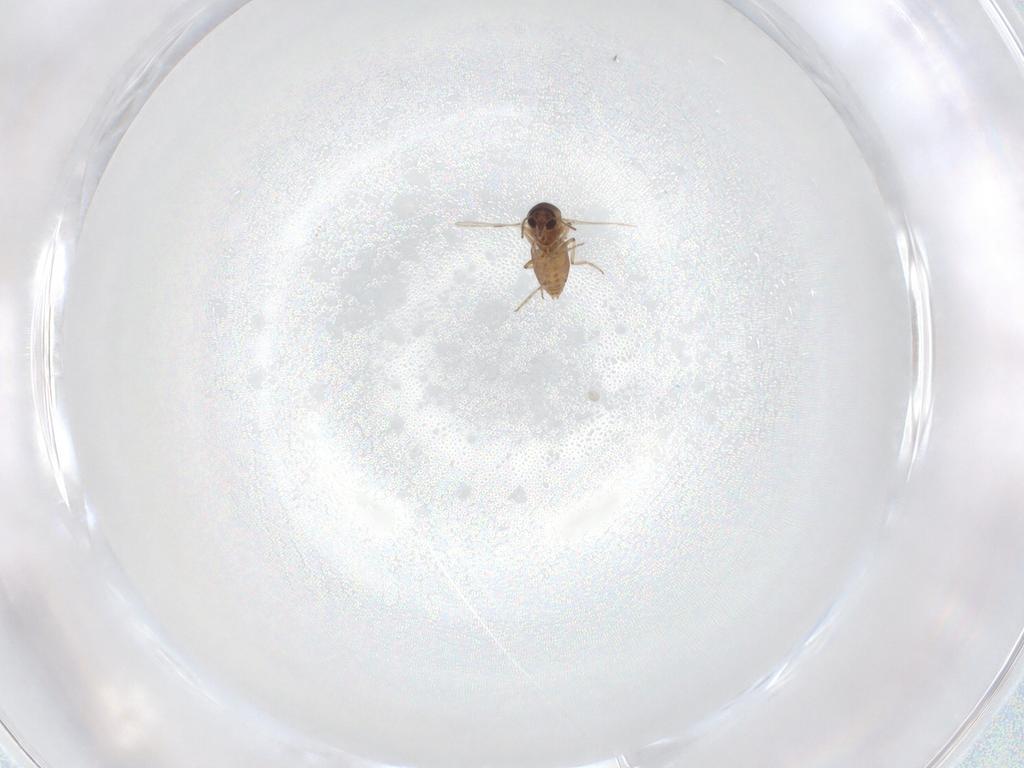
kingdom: Animalia
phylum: Arthropoda
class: Insecta
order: Diptera
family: Ceratopogonidae
